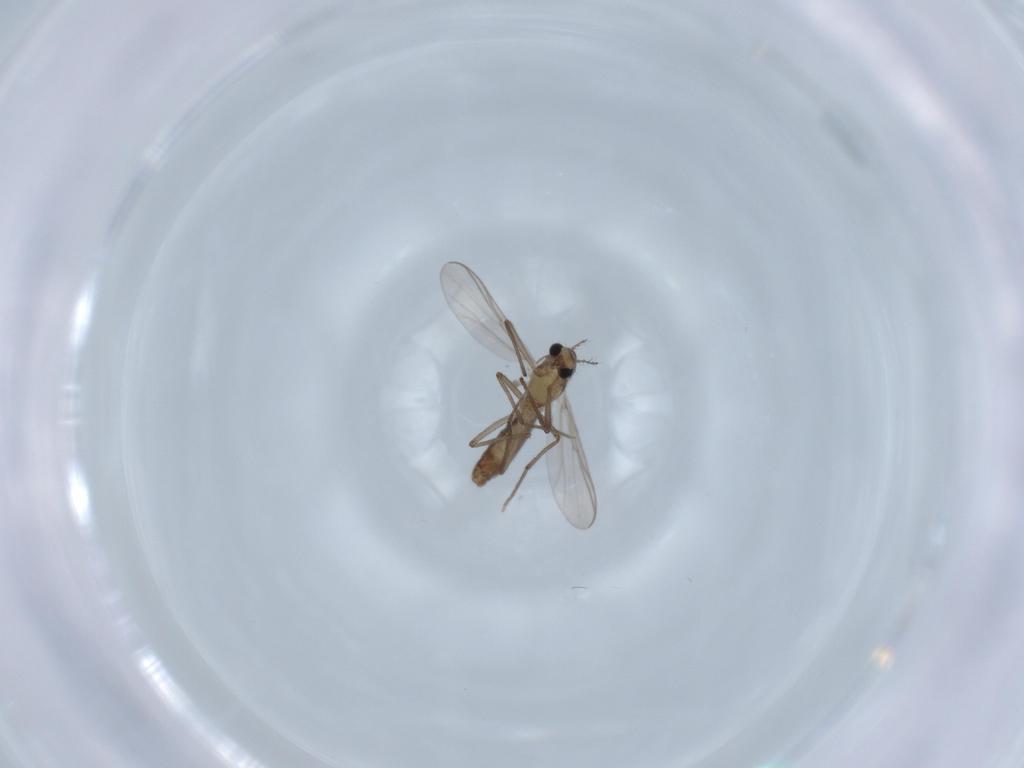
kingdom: Animalia
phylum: Arthropoda
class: Insecta
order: Diptera
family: Chironomidae
